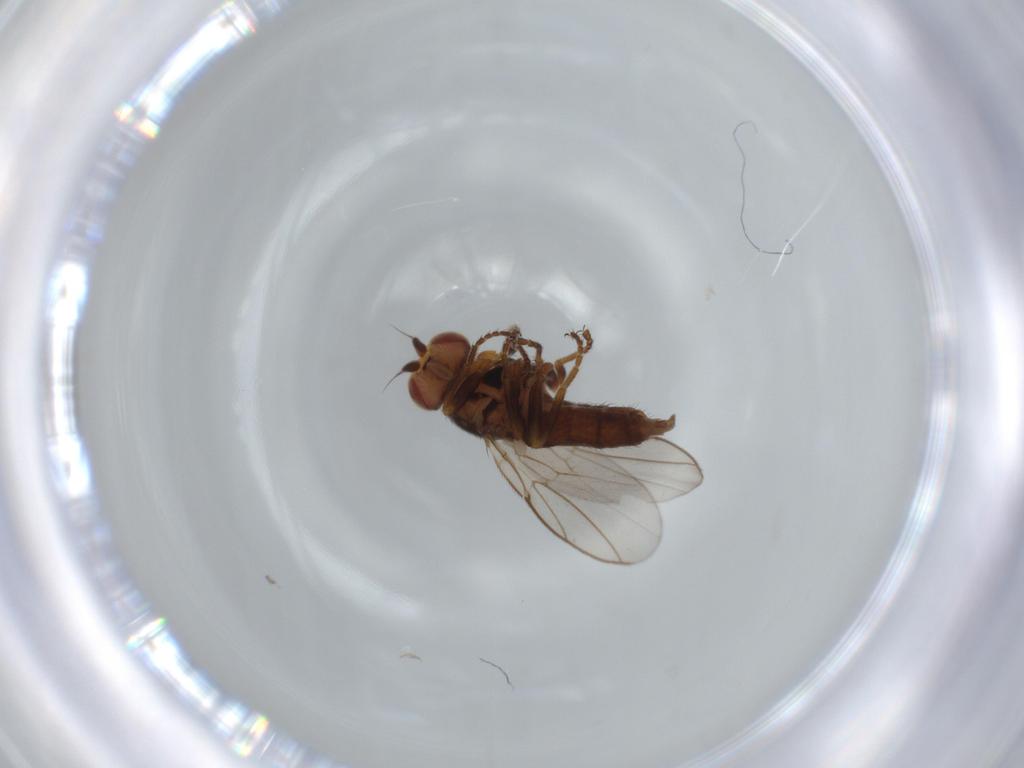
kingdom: Animalia
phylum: Arthropoda
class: Insecta
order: Diptera
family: Chloropidae
